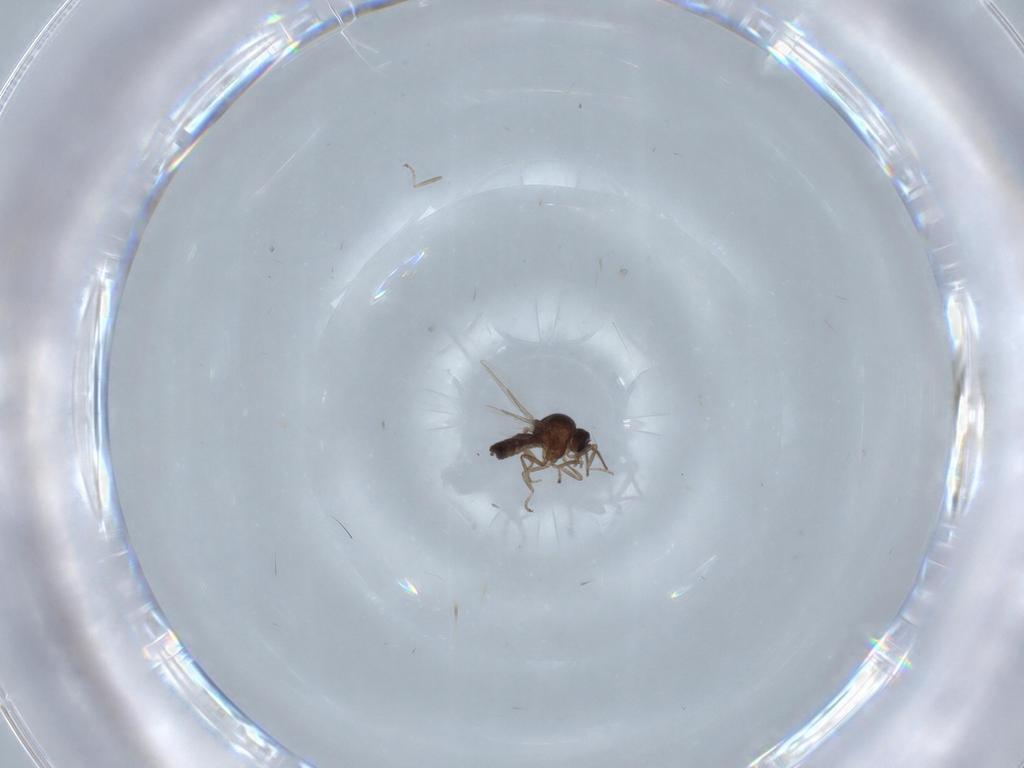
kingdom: Animalia
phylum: Arthropoda
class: Insecta
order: Diptera
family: Ceratopogonidae
